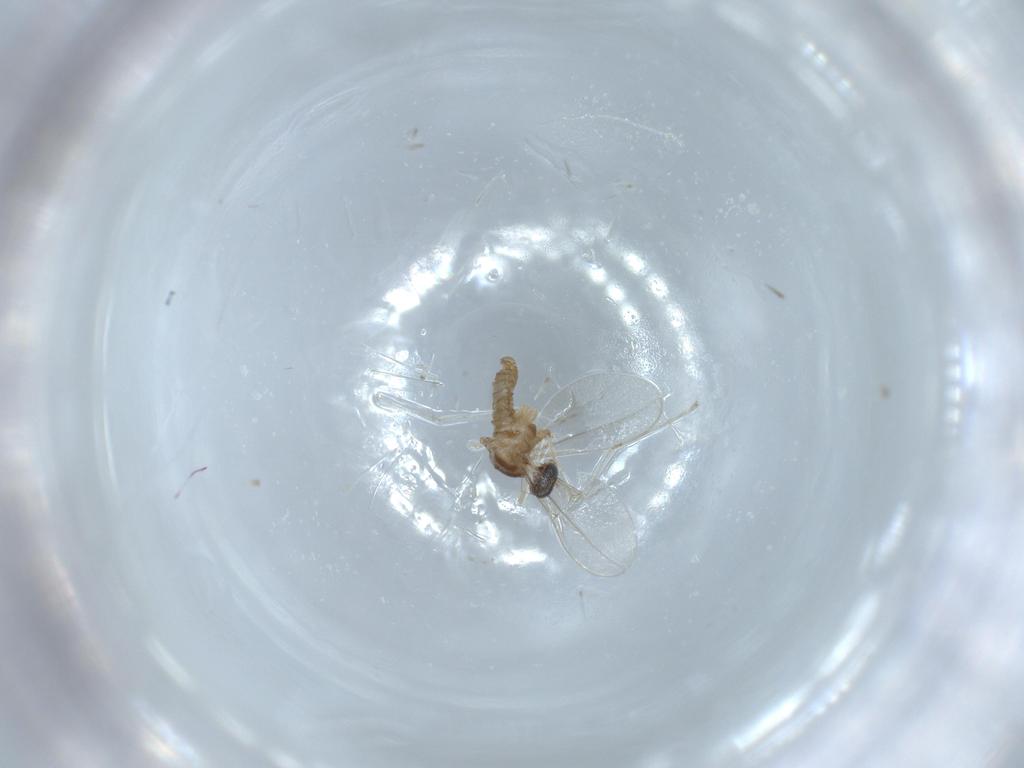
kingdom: Animalia
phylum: Arthropoda
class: Insecta
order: Diptera
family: Cecidomyiidae
